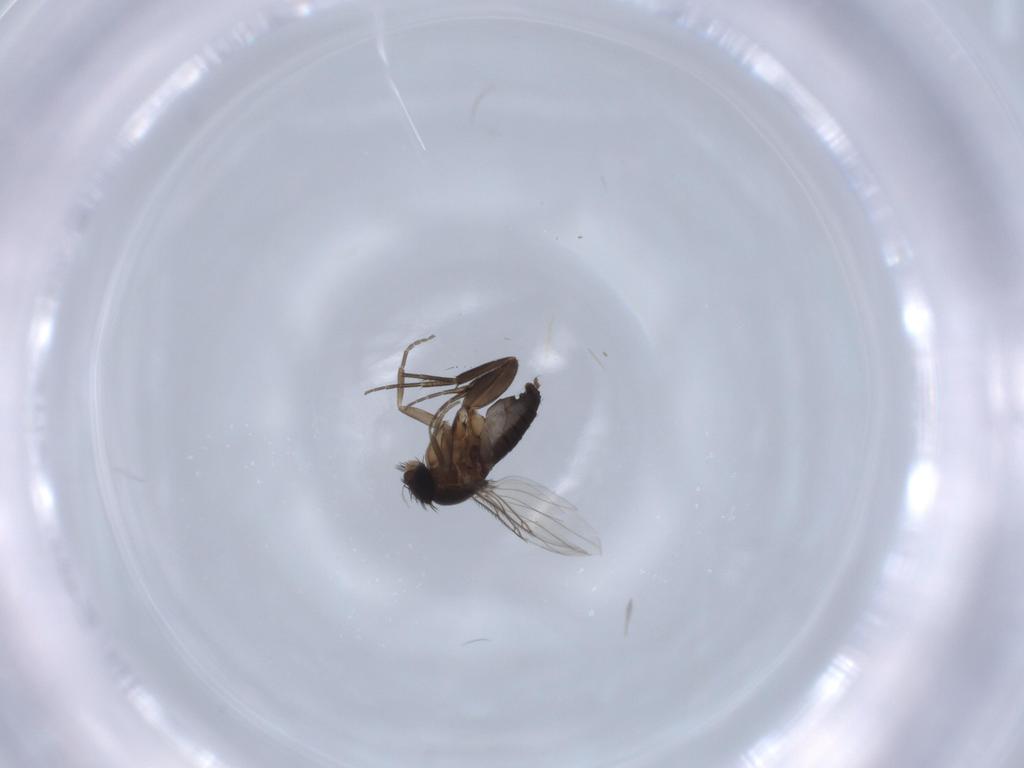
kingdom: Animalia
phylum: Arthropoda
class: Insecta
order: Diptera
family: Phoridae
